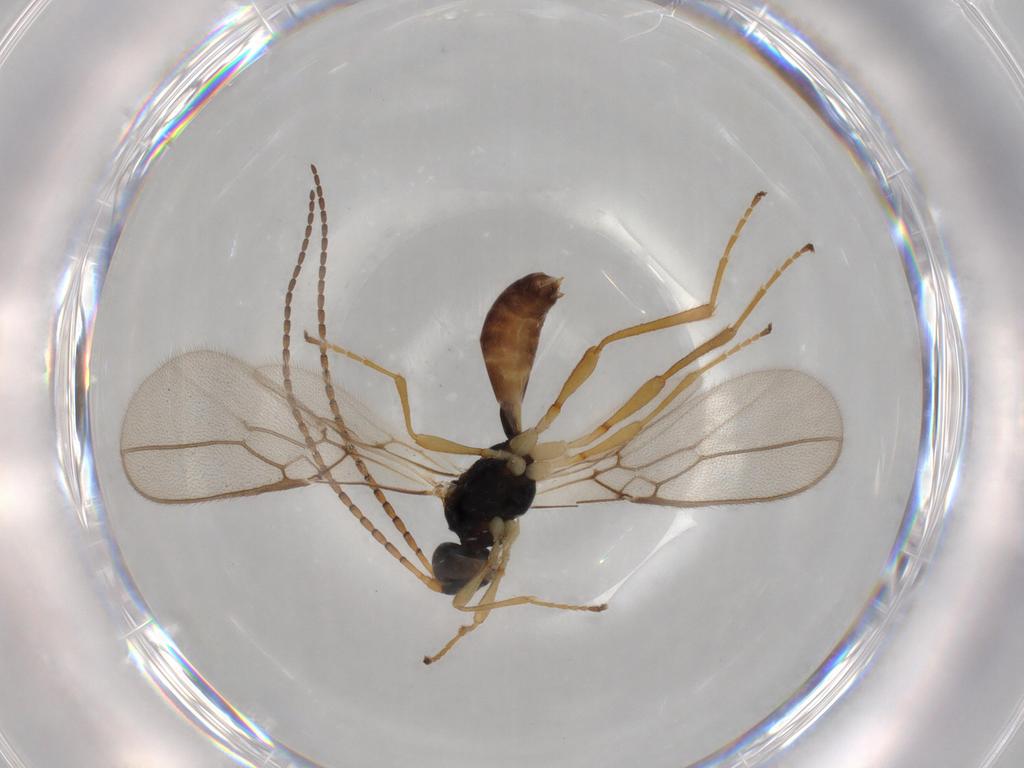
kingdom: Animalia
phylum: Arthropoda
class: Insecta
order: Hymenoptera
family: Braconidae
